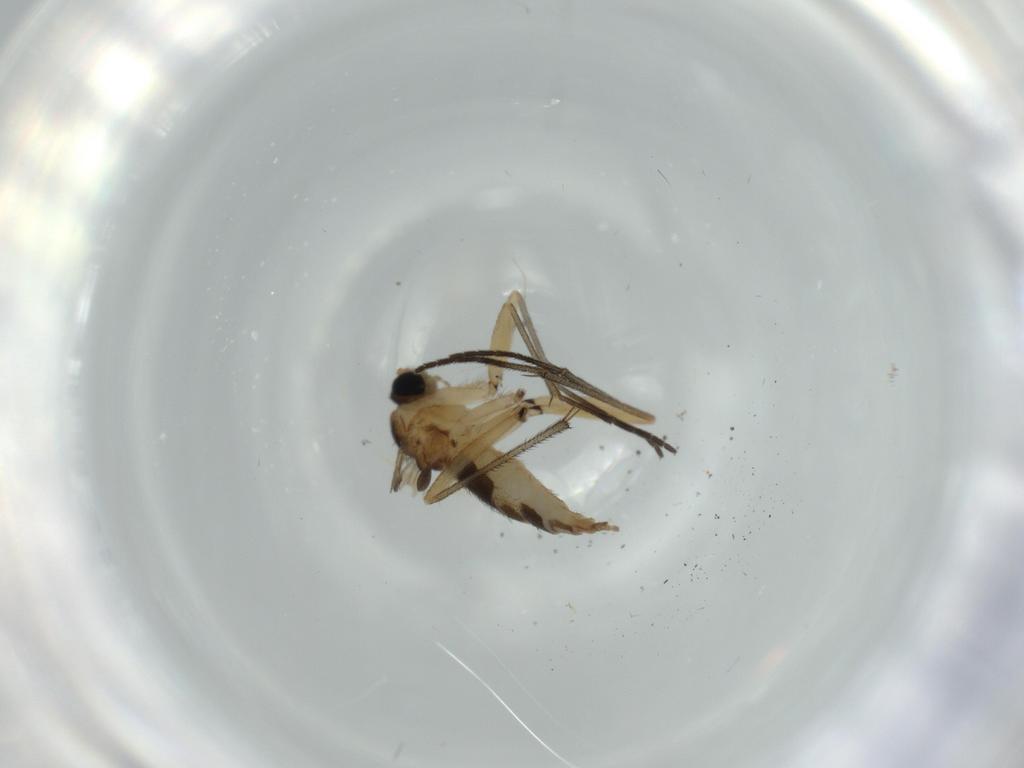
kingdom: Animalia
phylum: Arthropoda
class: Insecta
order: Diptera
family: Sciaridae
